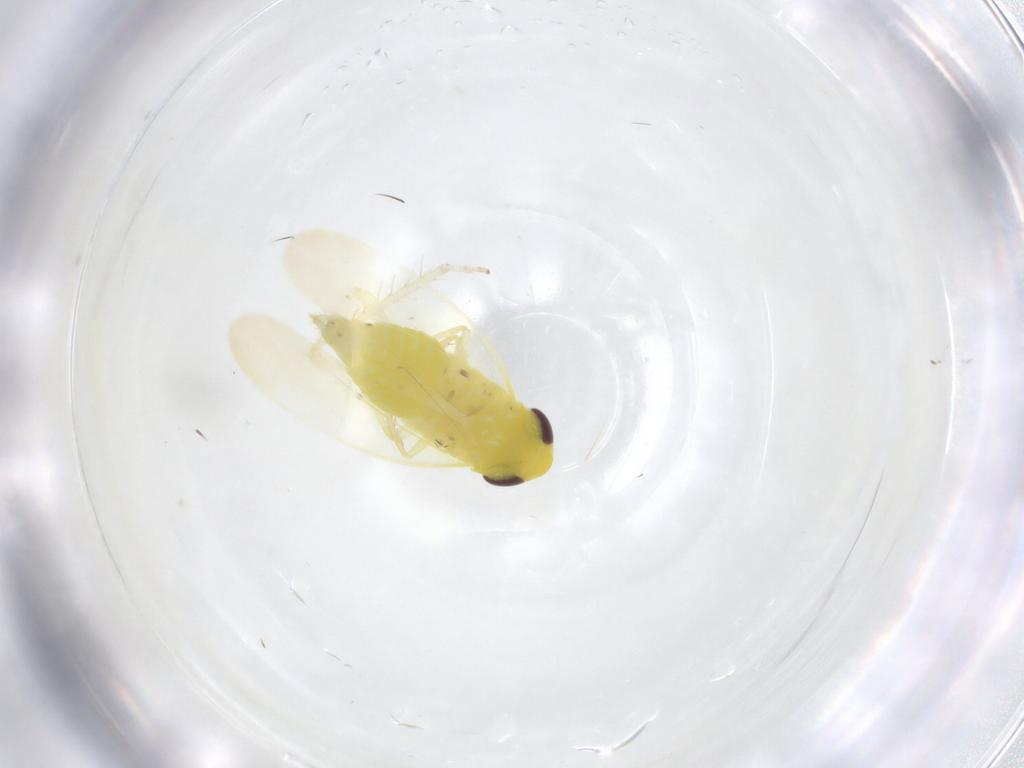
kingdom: Animalia
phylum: Arthropoda
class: Insecta
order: Hemiptera
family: Cicadellidae
